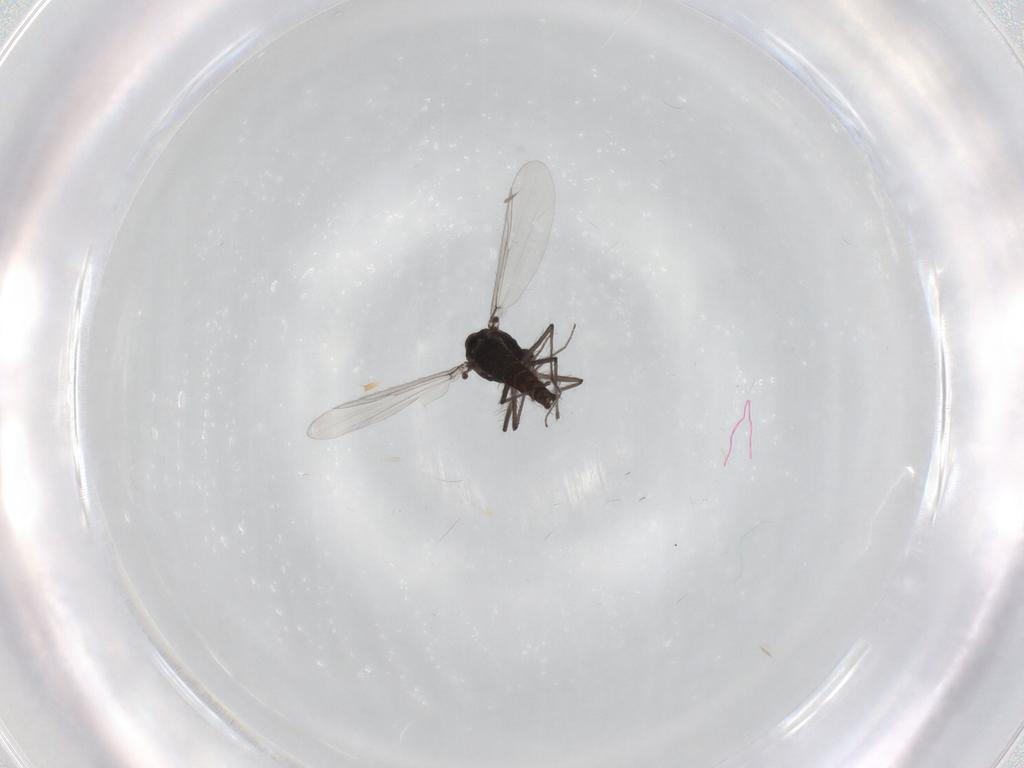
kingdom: Animalia
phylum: Arthropoda
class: Insecta
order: Diptera
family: Chironomidae
